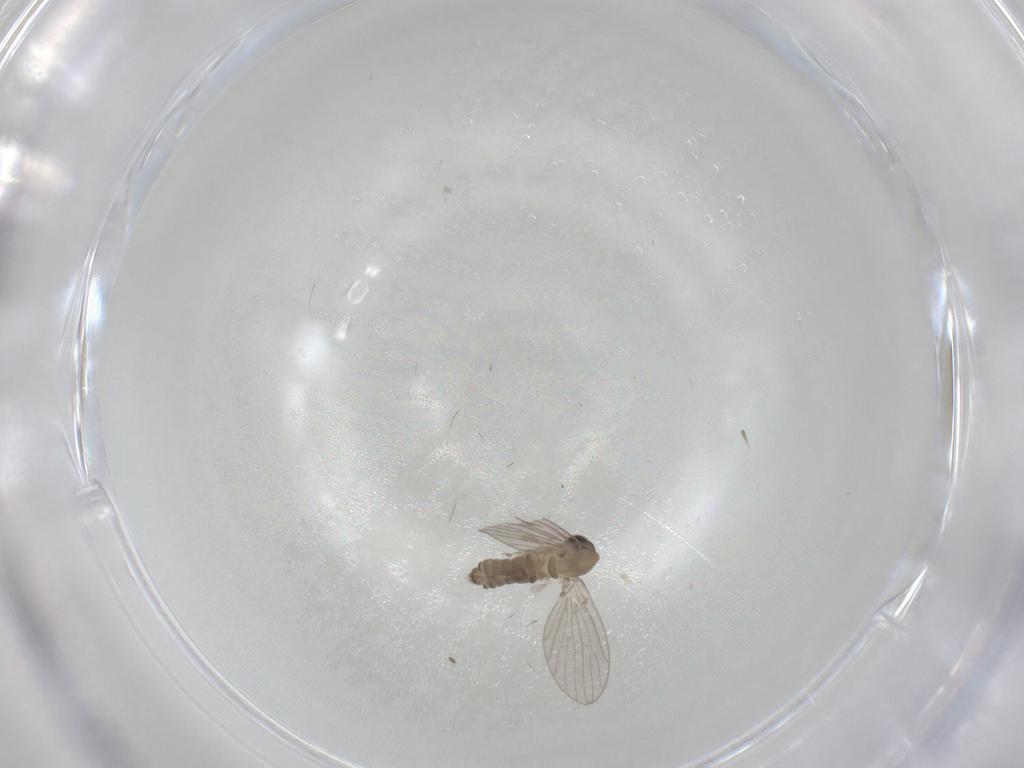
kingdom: Animalia
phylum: Arthropoda
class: Insecta
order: Diptera
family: Psychodidae
